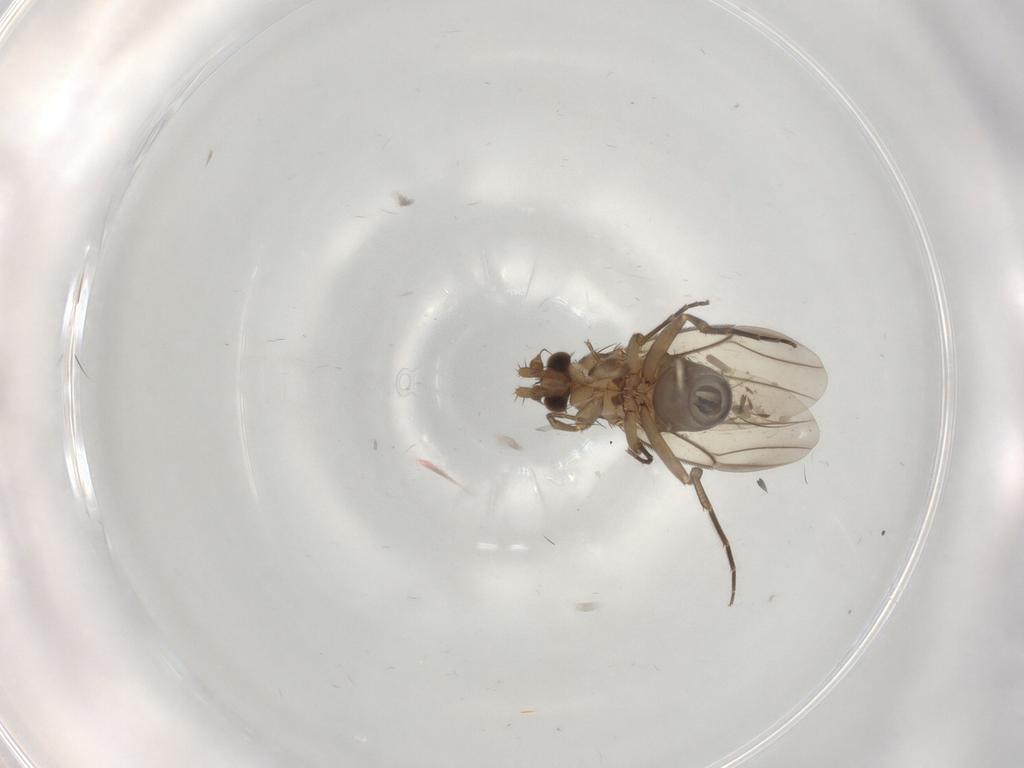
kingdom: Animalia
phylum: Arthropoda
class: Insecta
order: Diptera
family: Phoridae
